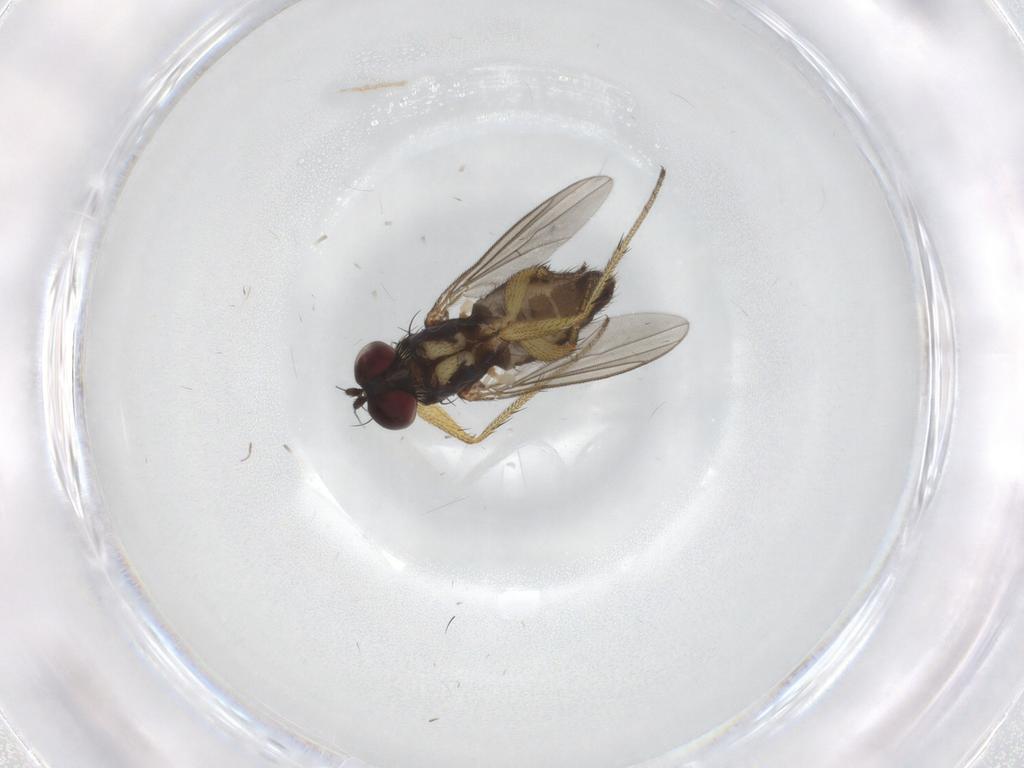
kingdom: Animalia
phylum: Arthropoda
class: Insecta
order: Diptera
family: Dolichopodidae
